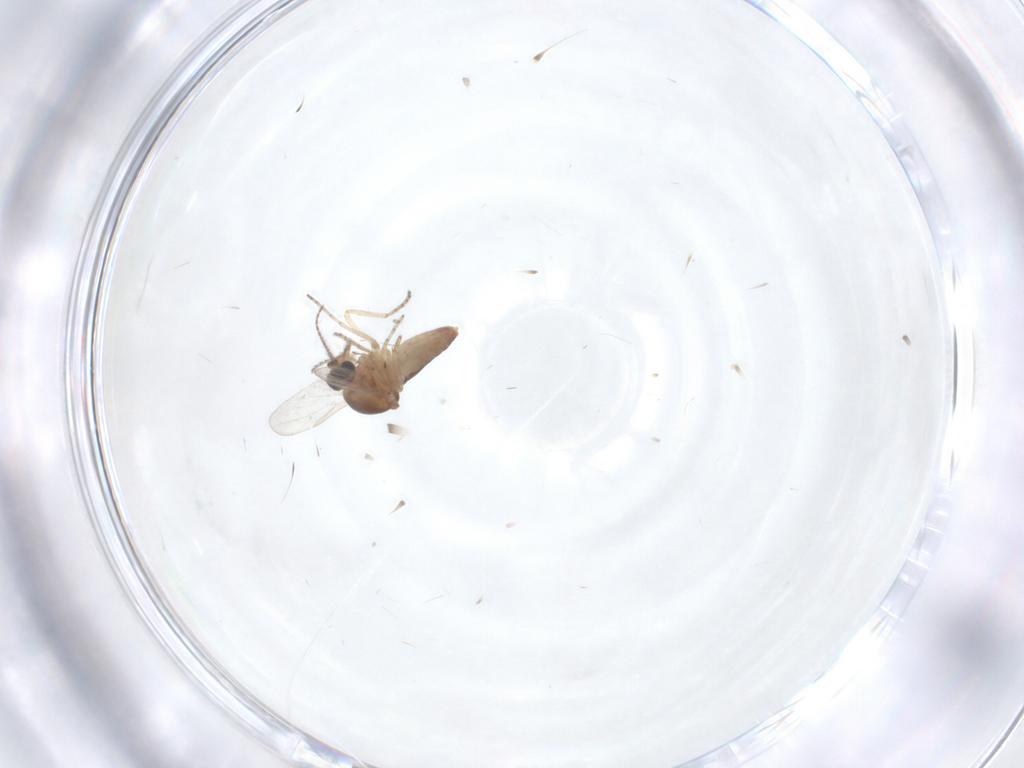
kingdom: Animalia
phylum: Arthropoda
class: Insecta
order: Diptera
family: Ceratopogonidae
